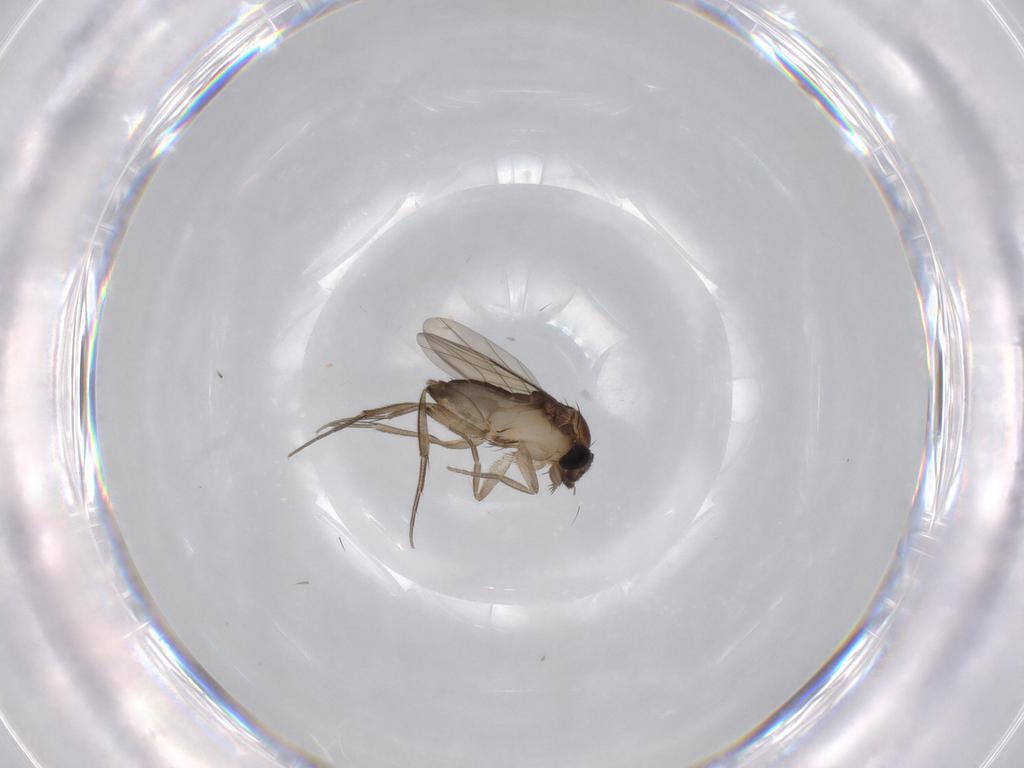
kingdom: Animalia
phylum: Arthropoda
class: Insecta
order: Diptera
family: Phoridae
